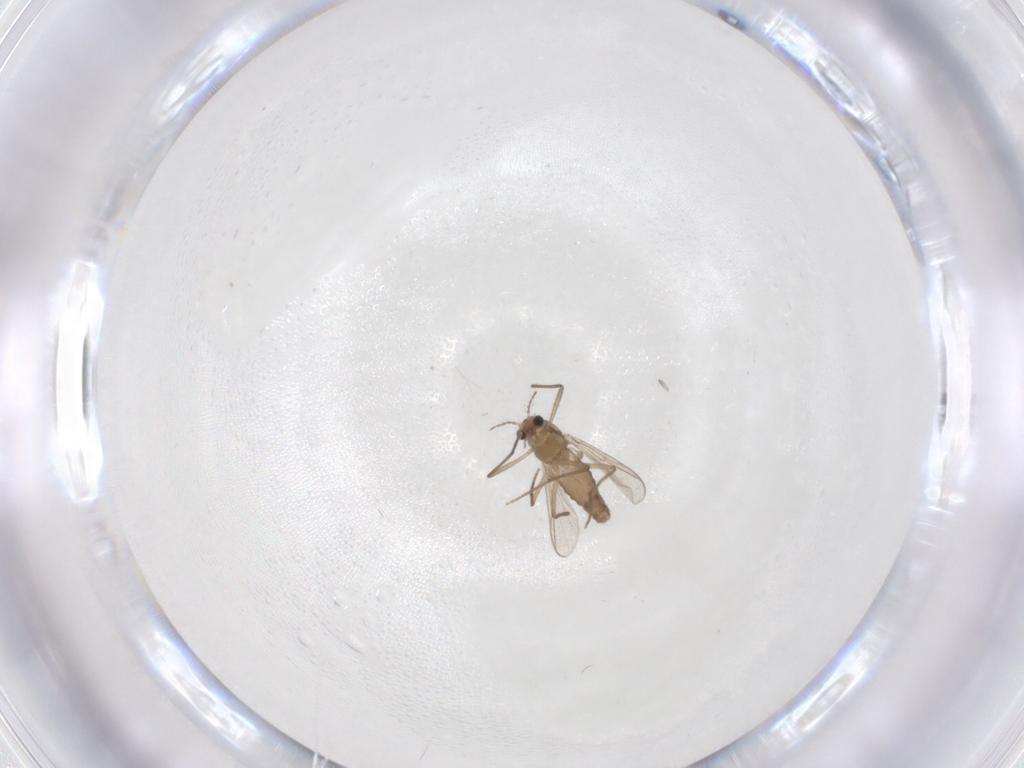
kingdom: Animalia
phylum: Arthropoda
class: Insecta
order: Diptera
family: Chironomidae
